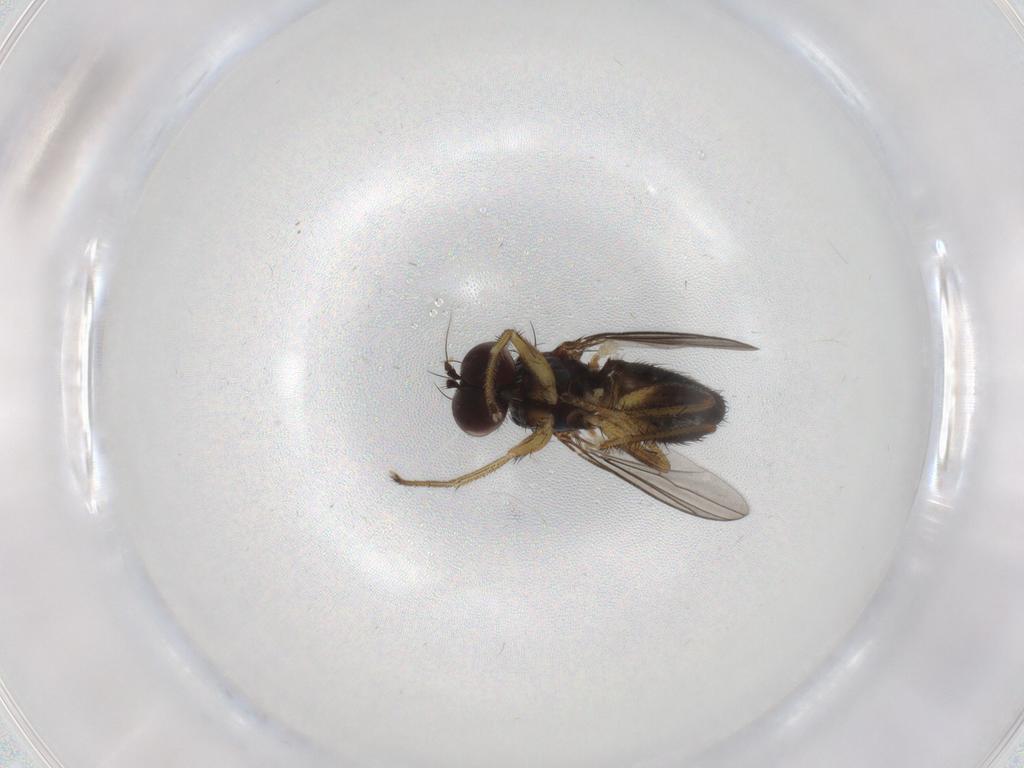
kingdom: Animalia
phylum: Arthropoda
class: Insecta
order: Diptera
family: Dolichopodidae
